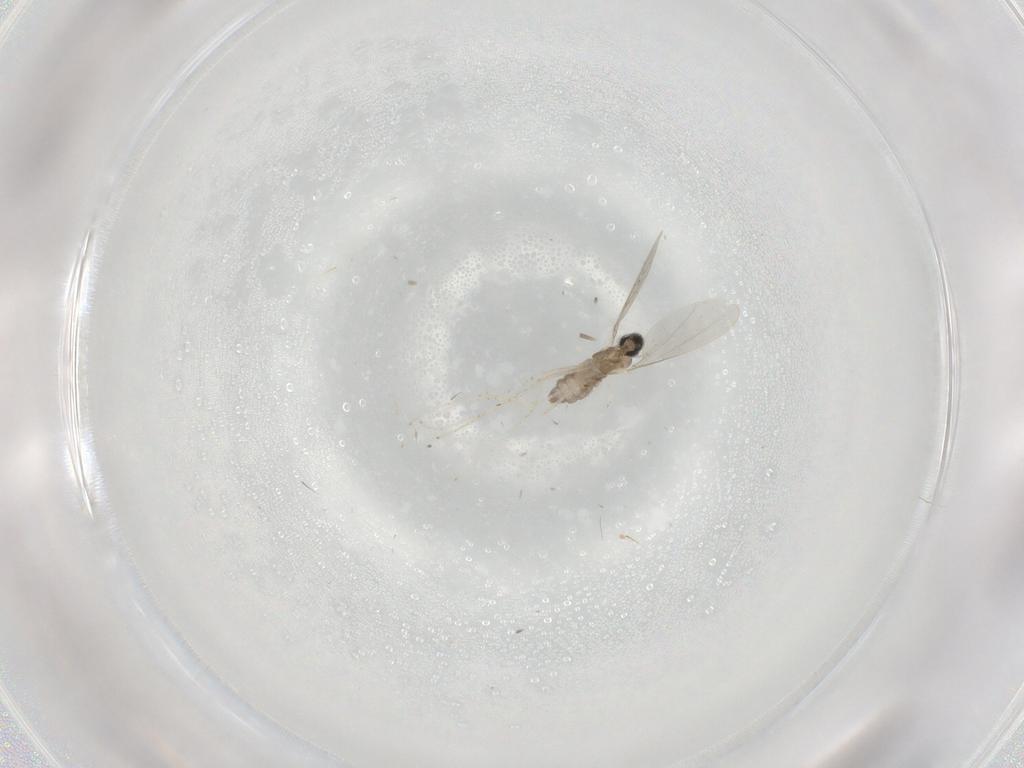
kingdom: Animalia
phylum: Arthropoda
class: Insecta
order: Diptera
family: Cecidomyiidae
